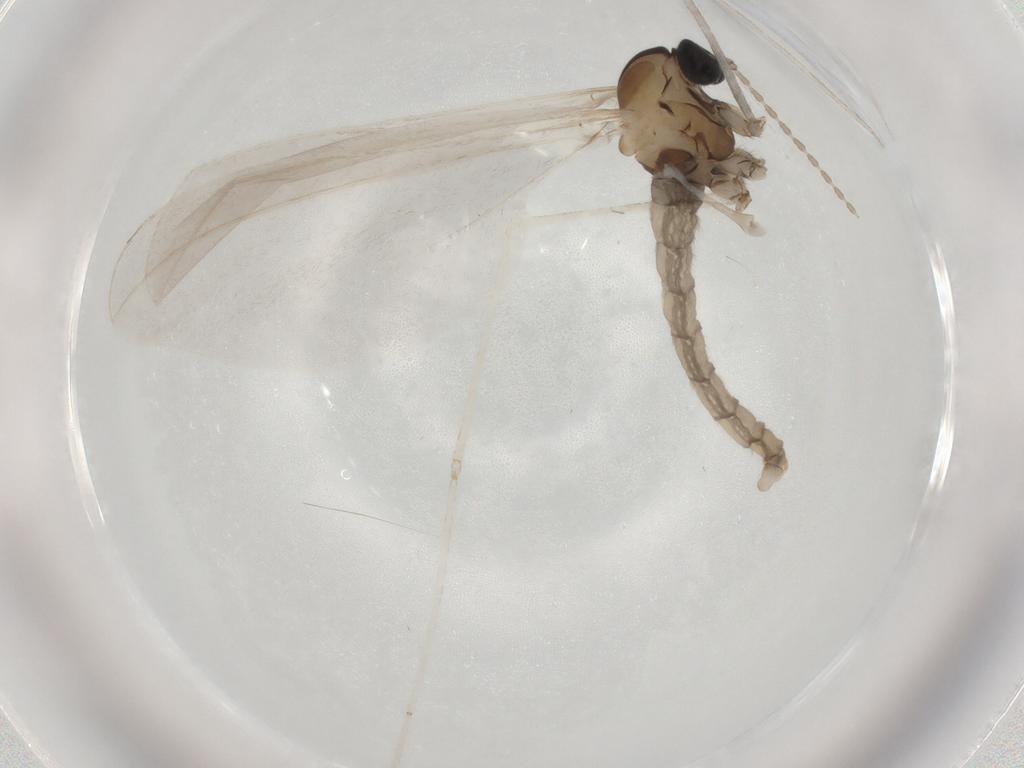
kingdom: Animalia
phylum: Arthropoda
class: Insecta
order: Diptera
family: Cecidomyiidae
